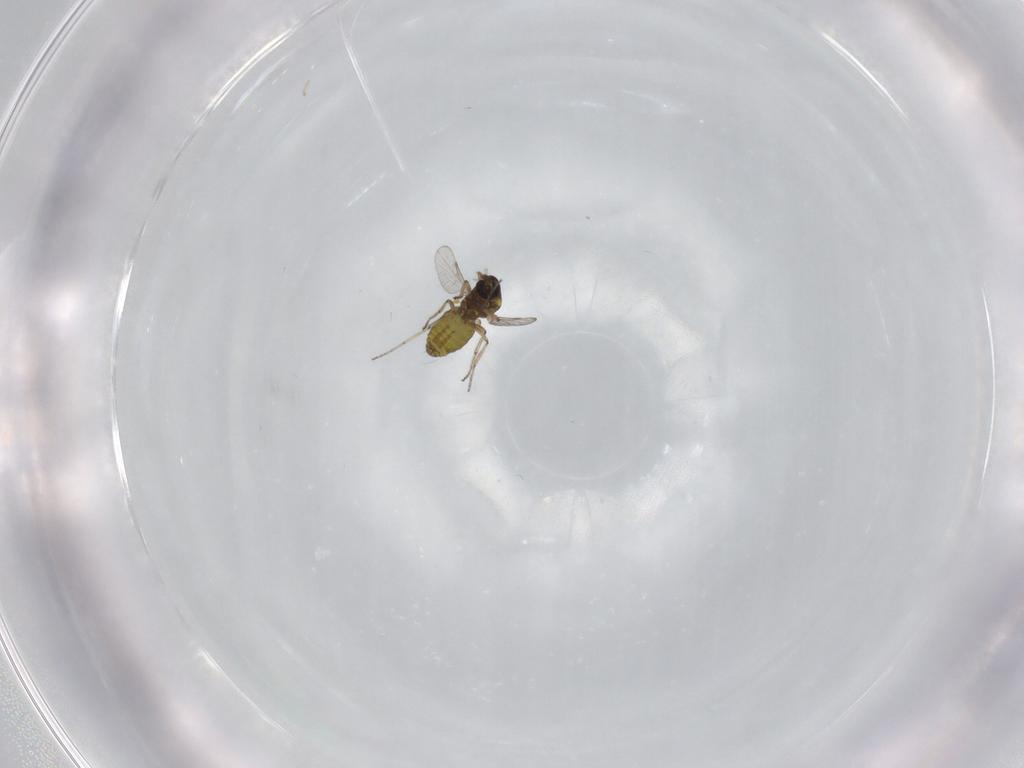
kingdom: Animalia
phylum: Arthropoda
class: Insecta
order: Diptera
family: Ceratopogonidae
